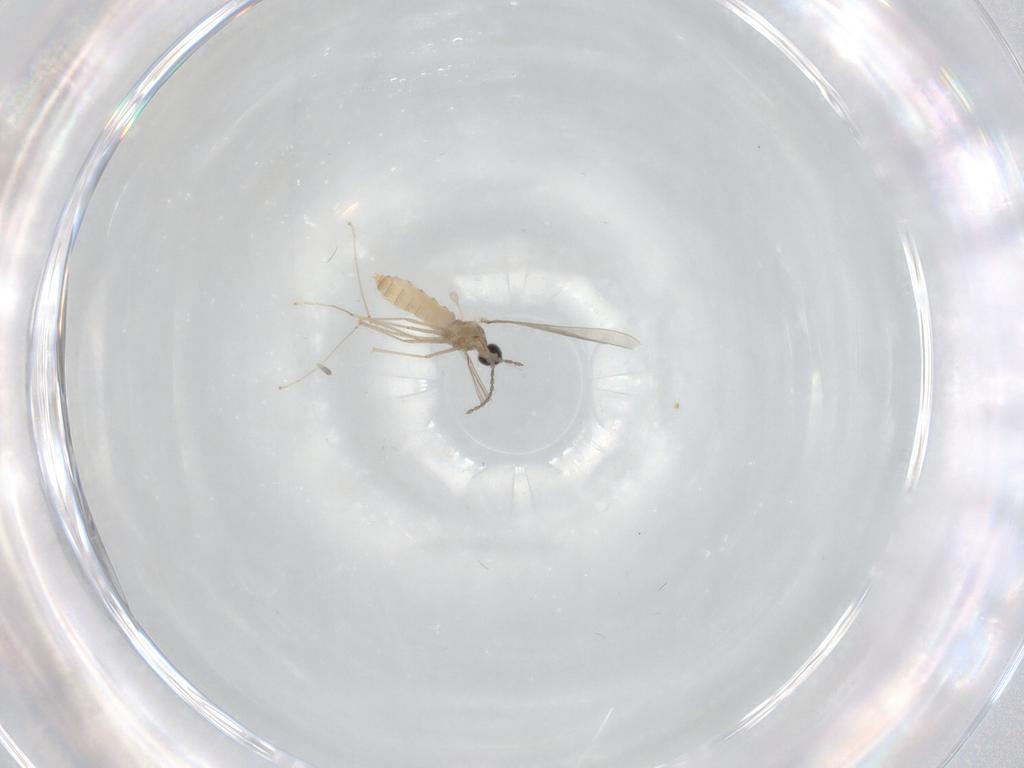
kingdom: Animalia
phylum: Arthropoda
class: Insecta
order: Diptera
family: Cecidomyiidae
